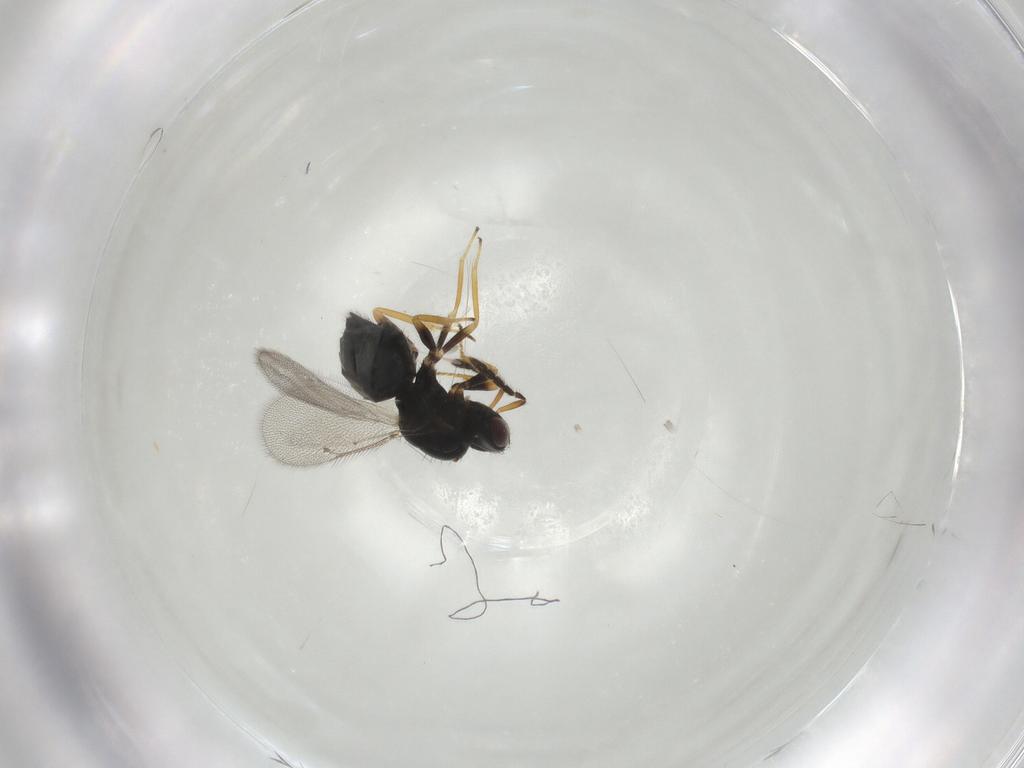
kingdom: Animalia
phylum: Arthropoda
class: Insecta
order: Hymenoptera
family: Eulophidae
